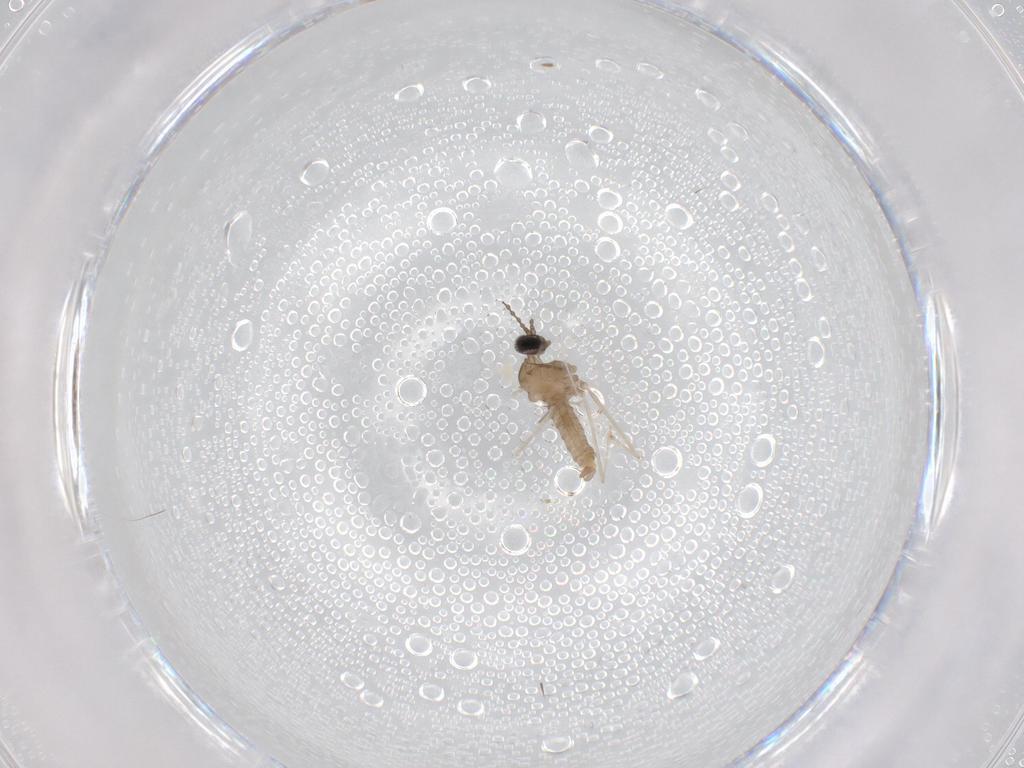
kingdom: Animalia
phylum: Arthropoda
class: Insecta
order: Diptera
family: Cecidomyiidae
